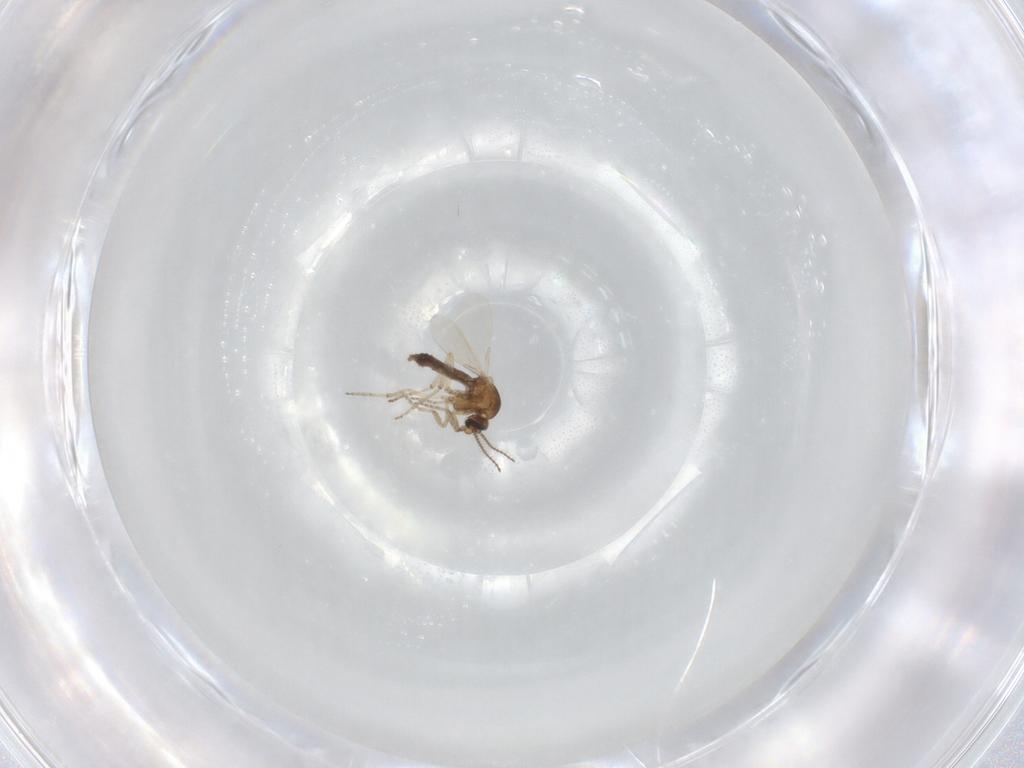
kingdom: Animalia
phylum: Arthropoda
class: Insecta
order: Diptera
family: Ceratopogonidae
